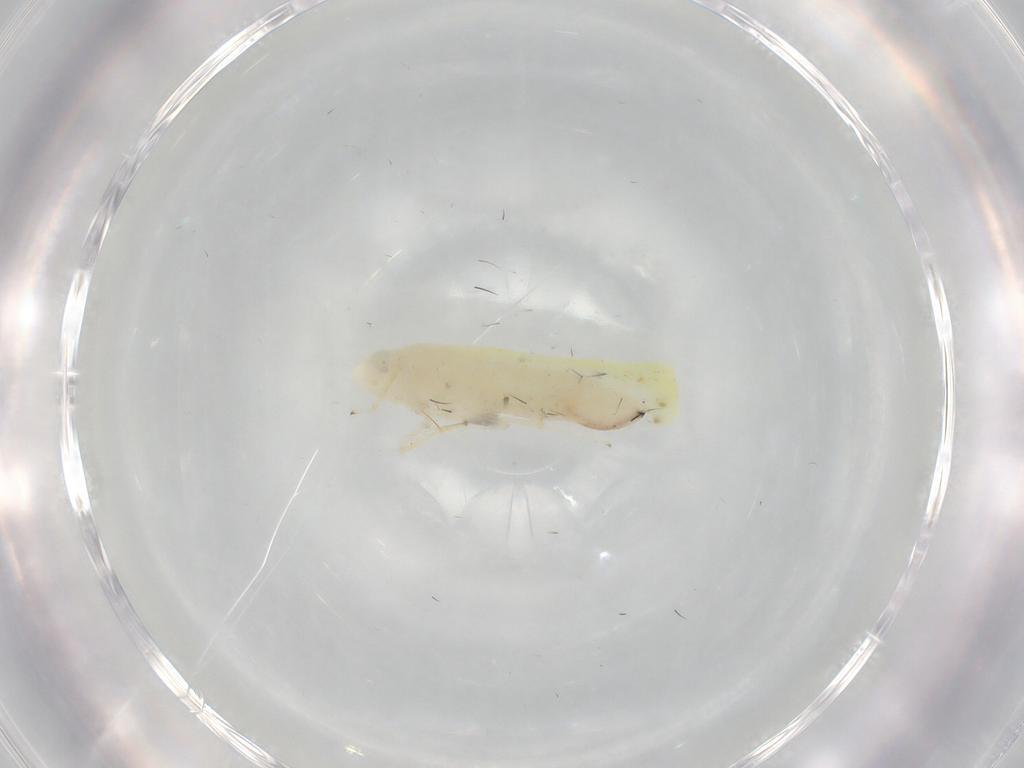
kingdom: Animalia
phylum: Arthropoda
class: Insecta
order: Hemiptera
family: Cicadellidae
